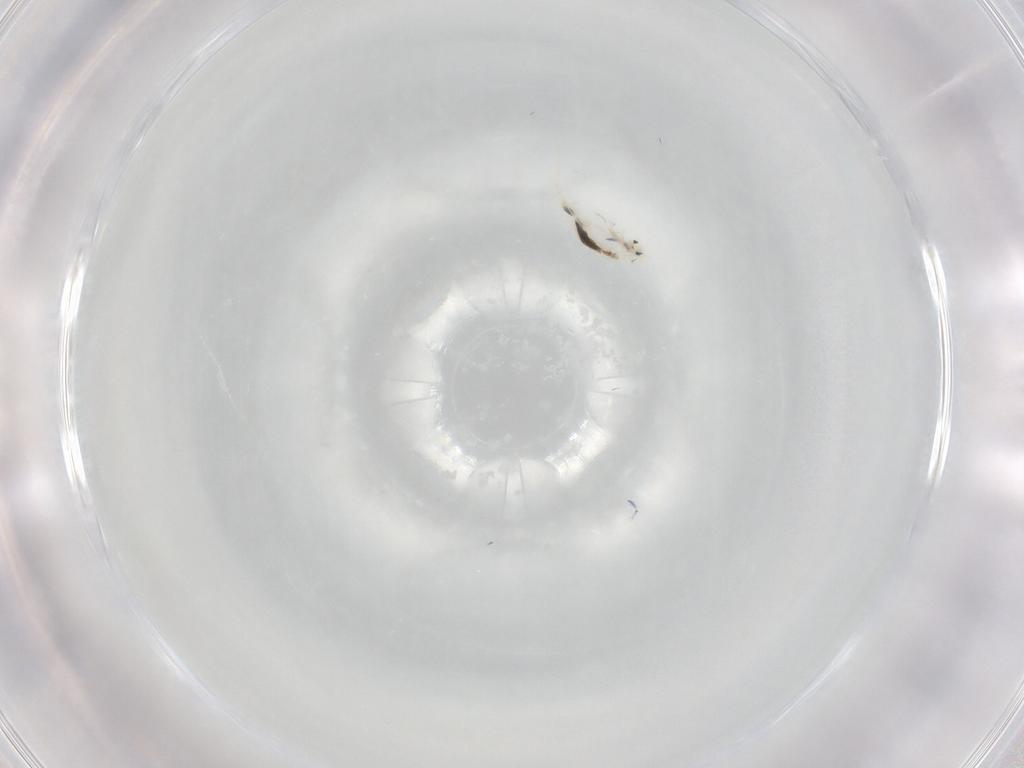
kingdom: Animalia
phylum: Arthropoda
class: Collembola
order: Entomobryomorpha
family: Entomobryidae
